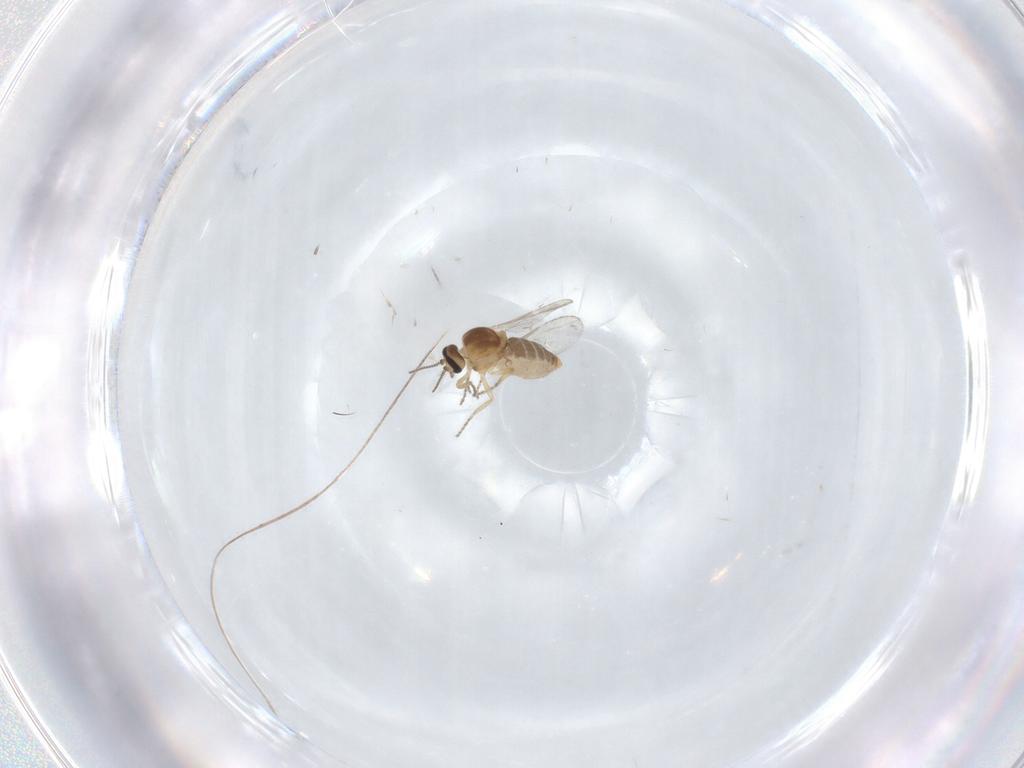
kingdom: Animalia
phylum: Arthropoda
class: Insecta
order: Diptera
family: Ceratopogonidae
